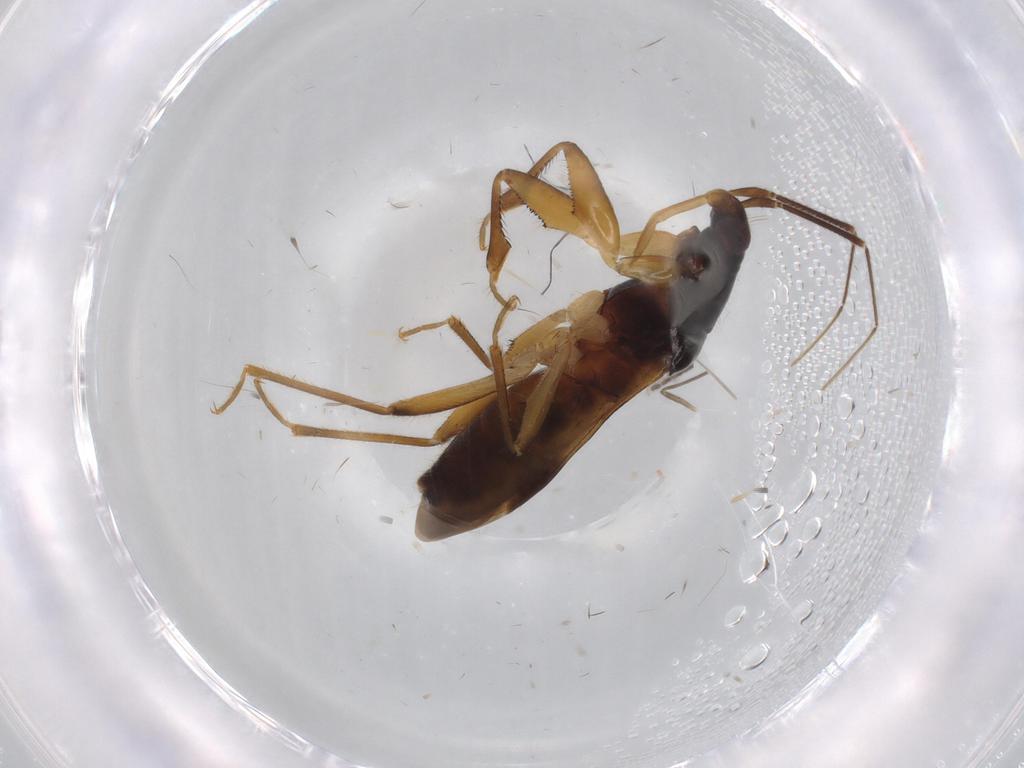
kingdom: Animalia
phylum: Arthropoda
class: Insecta
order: Hemiptera
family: Nabidae
